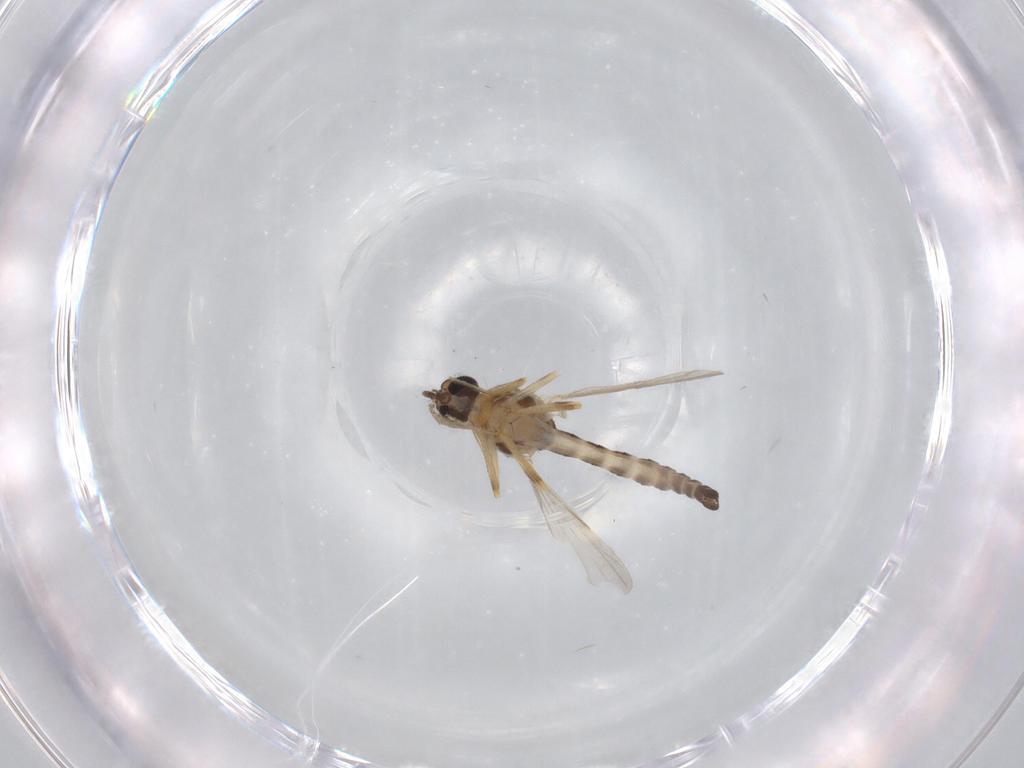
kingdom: Animalia
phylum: Arthropoda
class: Insecta
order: Diptera
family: Ceratopogonidae
